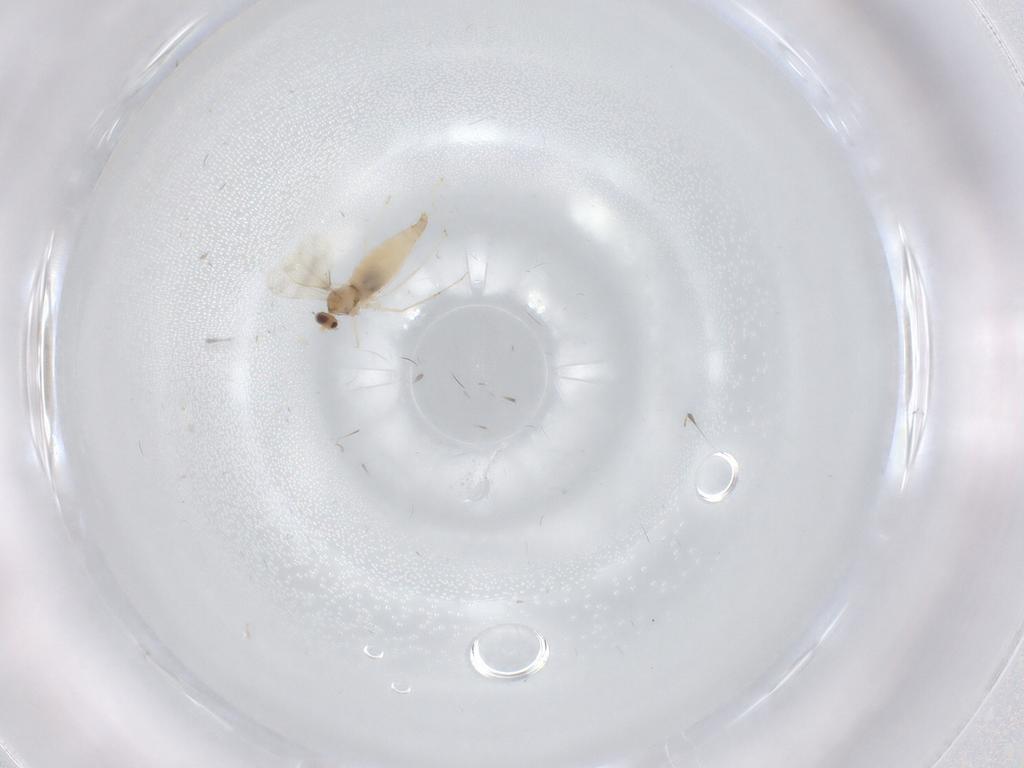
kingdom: Animalia
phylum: Arthropoda
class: Insecta
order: Diptera
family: Cecidomyiidae
